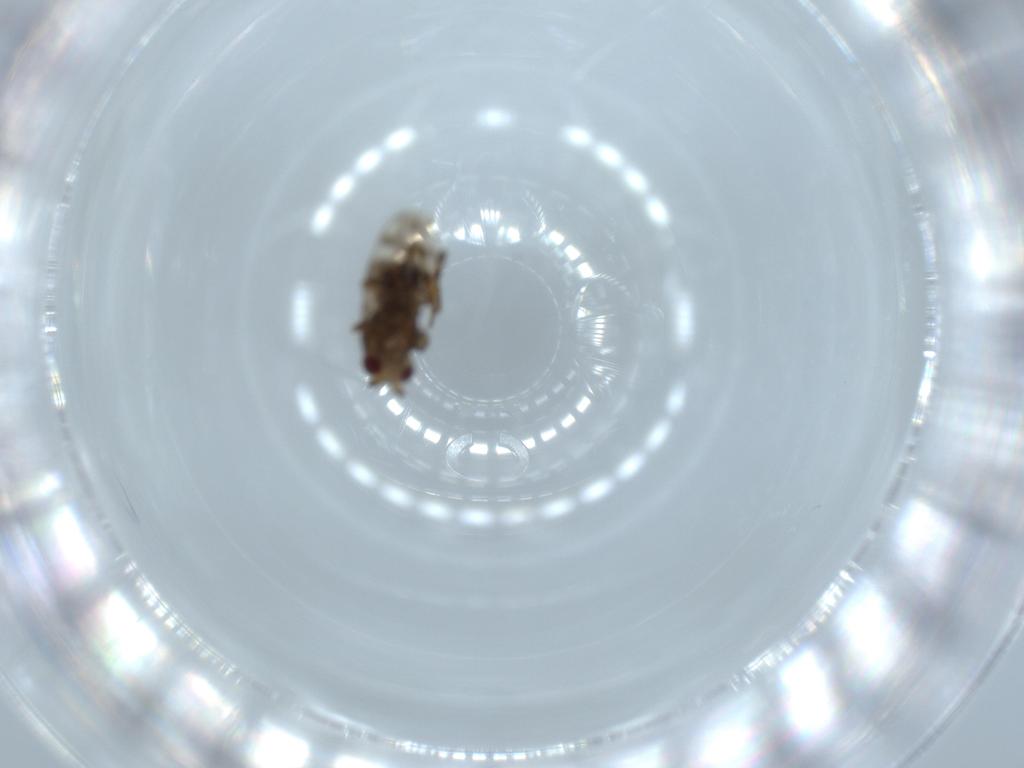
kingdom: Animalia
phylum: Arthropoda
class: Insecta
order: Diptera
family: Sphaeroceridae
